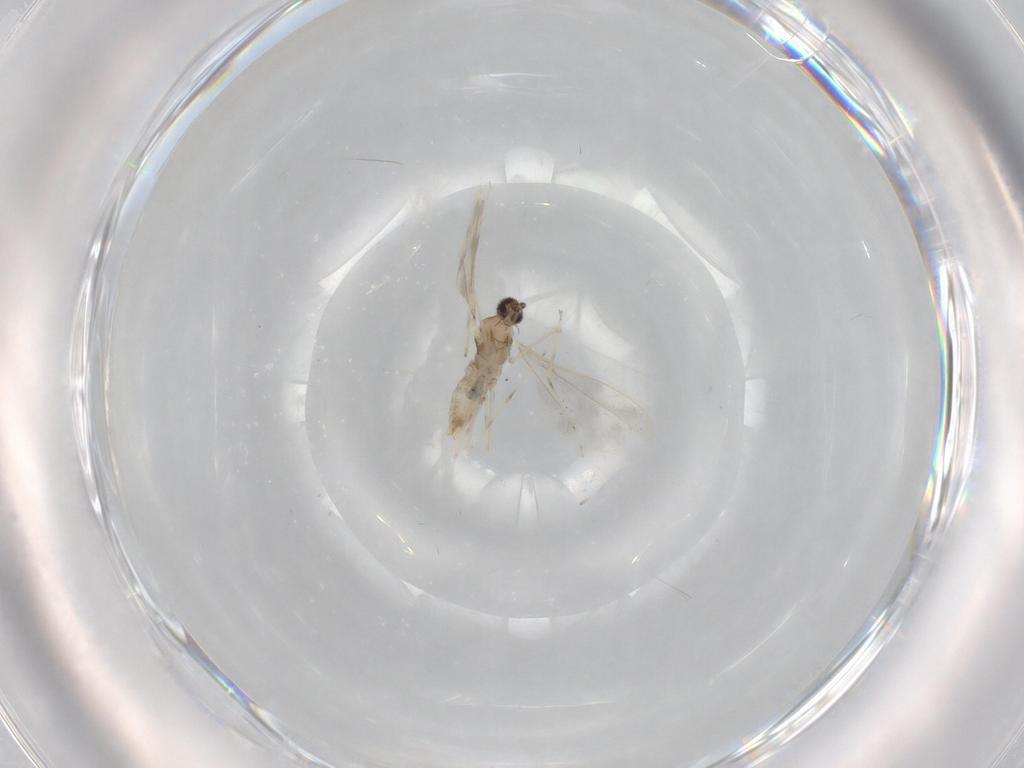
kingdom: Animalia
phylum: Arthropoda
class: Insecta
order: Diptera
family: Cecidomyiidae
